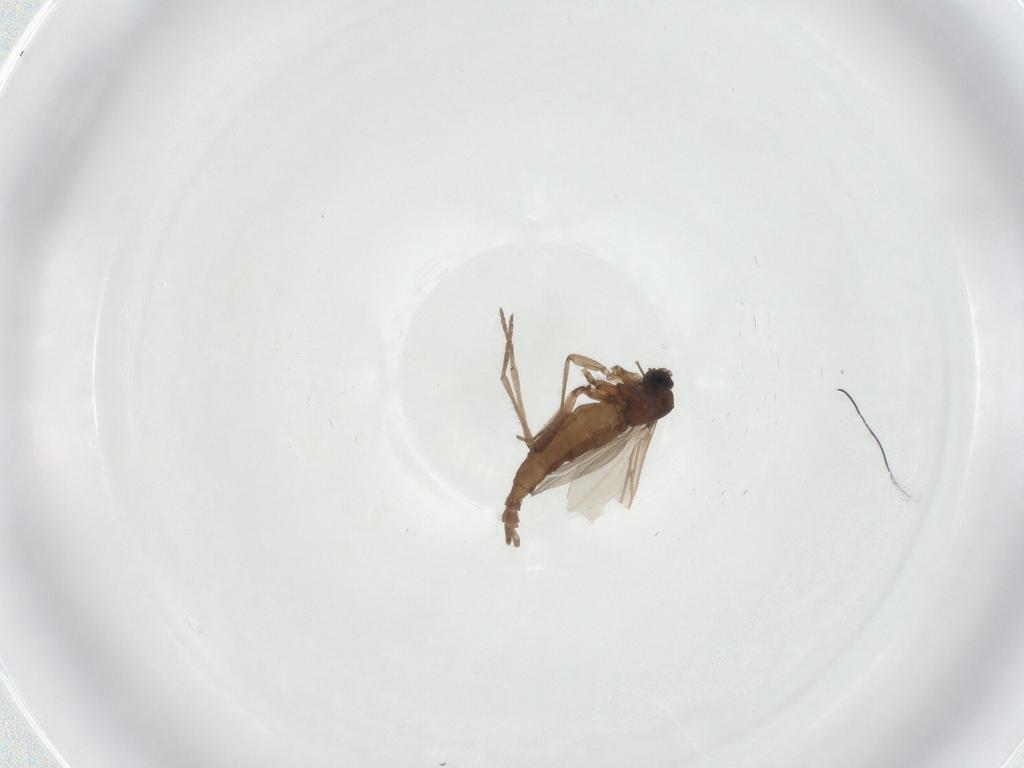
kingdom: Animalia
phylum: Arthropoda
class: Insecta
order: Diptera
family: Sciaridae
